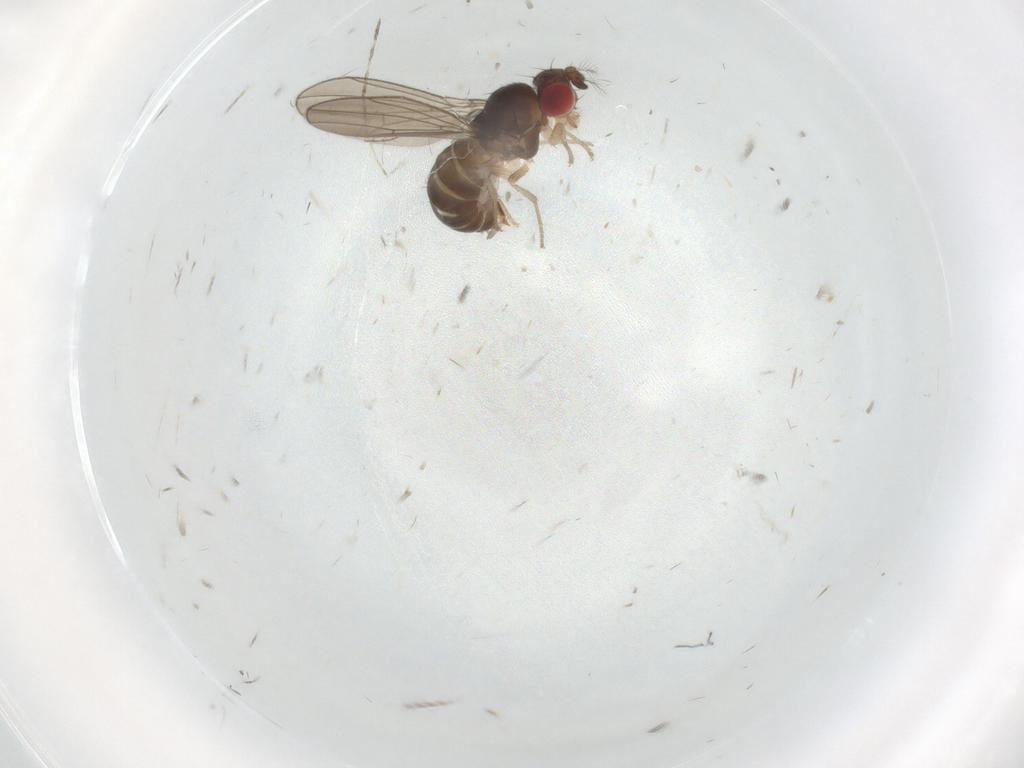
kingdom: Animalia
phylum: Arthropoda
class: Insecta
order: Diptera
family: Drosophilidae
